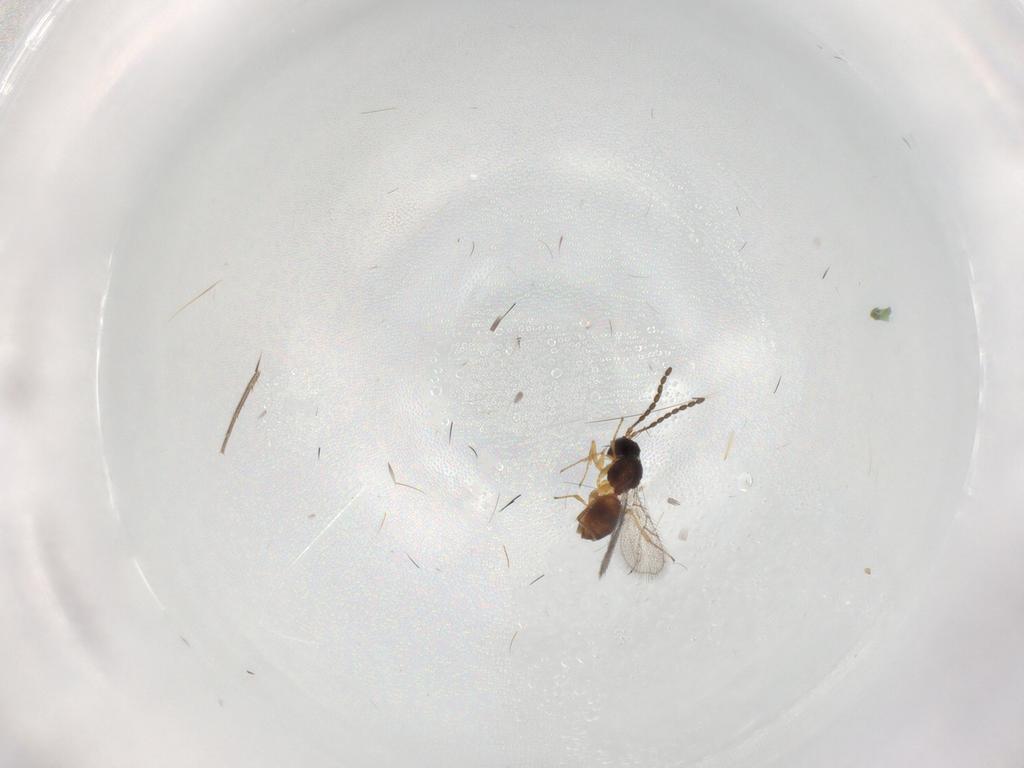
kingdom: Animalia
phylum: Arthropoda
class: Insecta
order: Hymenoptera
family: Figitidae
